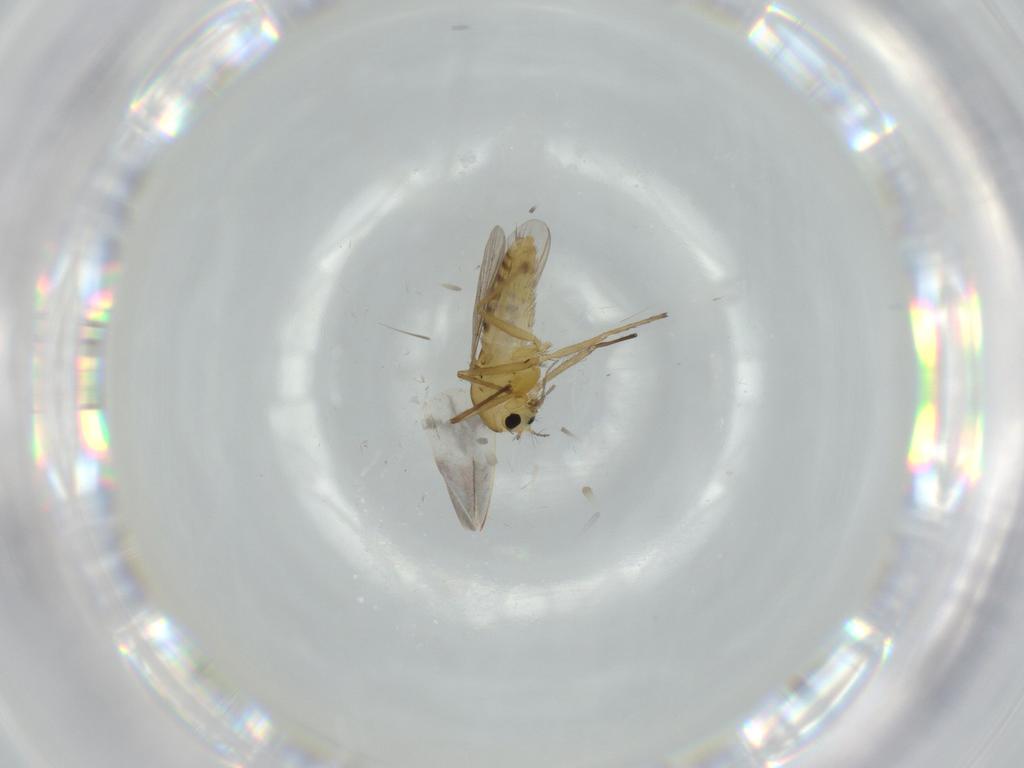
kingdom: Animalia
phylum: Arthropoda
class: Insecta
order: Diptera
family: Chironomidae
